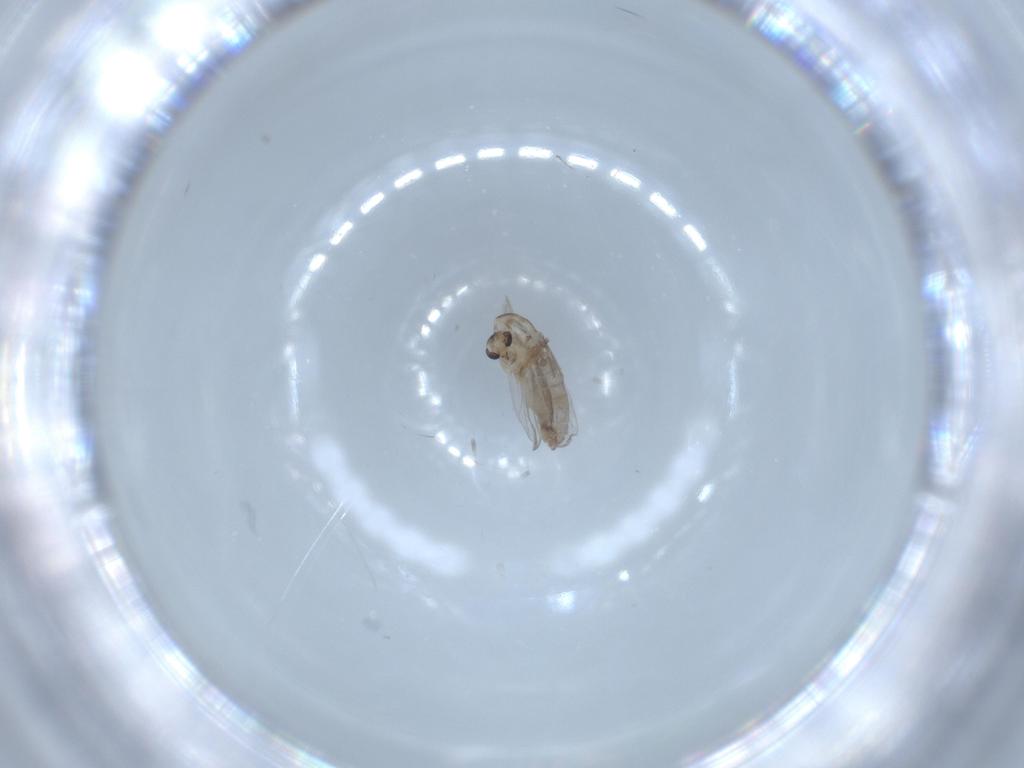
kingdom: Animalia
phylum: Arthropoda
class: Insecta
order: Diptera
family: Chironomidae
